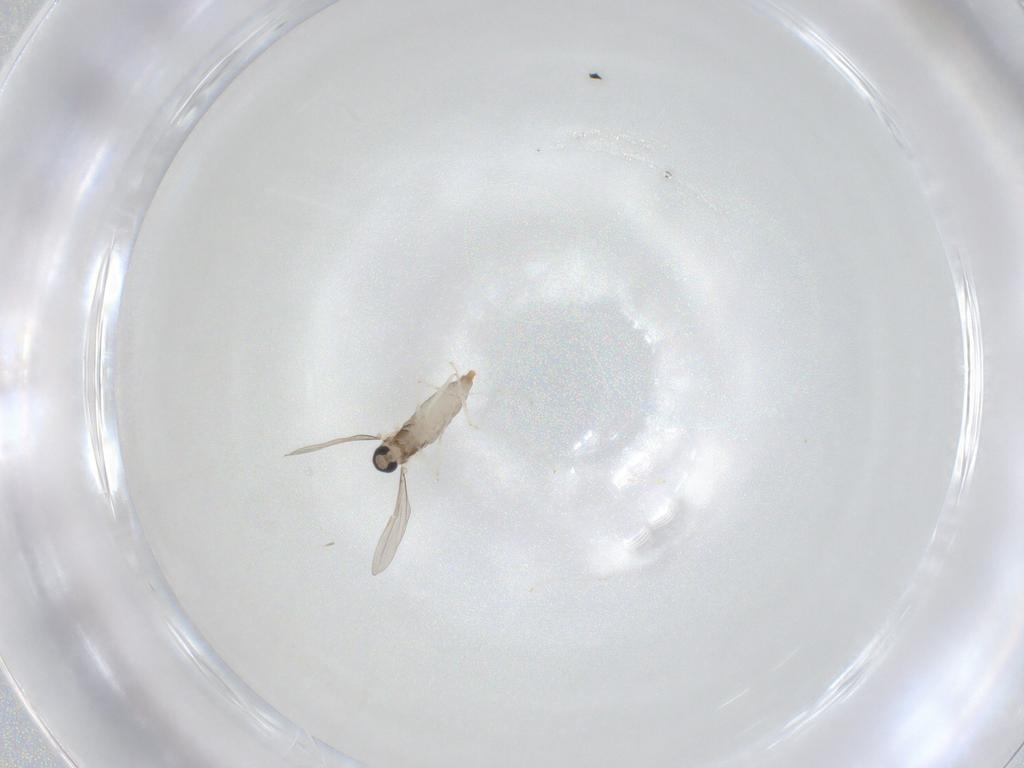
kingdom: Animalia
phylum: Arthropoda
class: Insecta
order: Diptera
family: Cecidomyiidae
